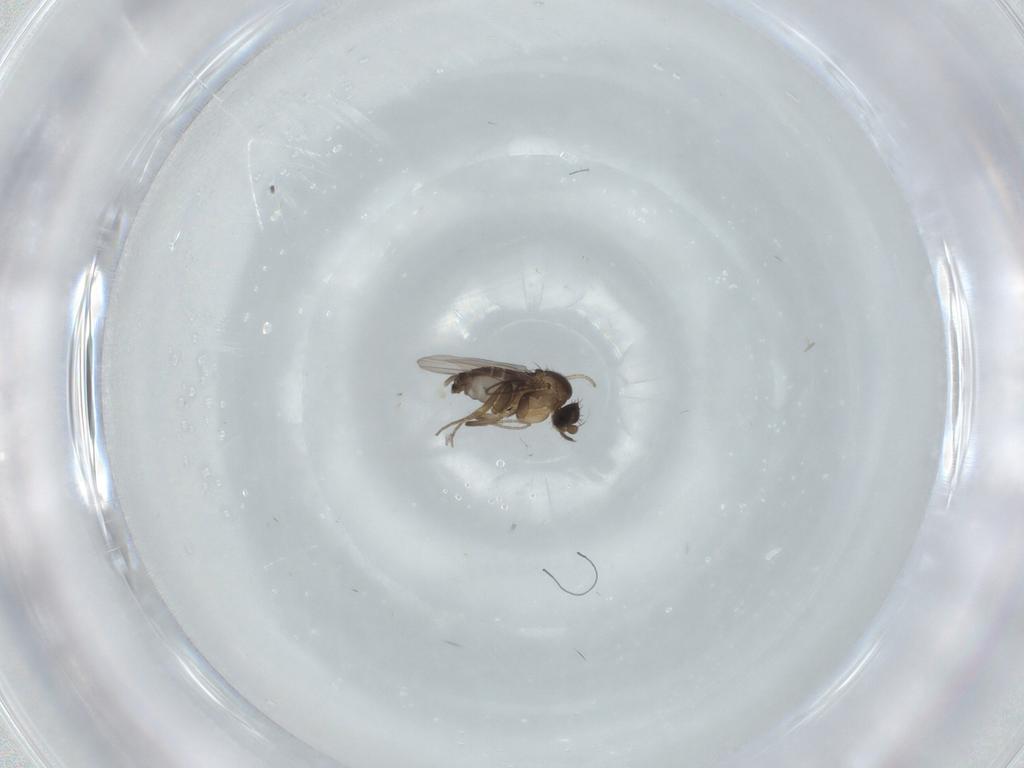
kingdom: Animalia
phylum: Arthropoda
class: Insecta
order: Diptera
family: Phoridae
